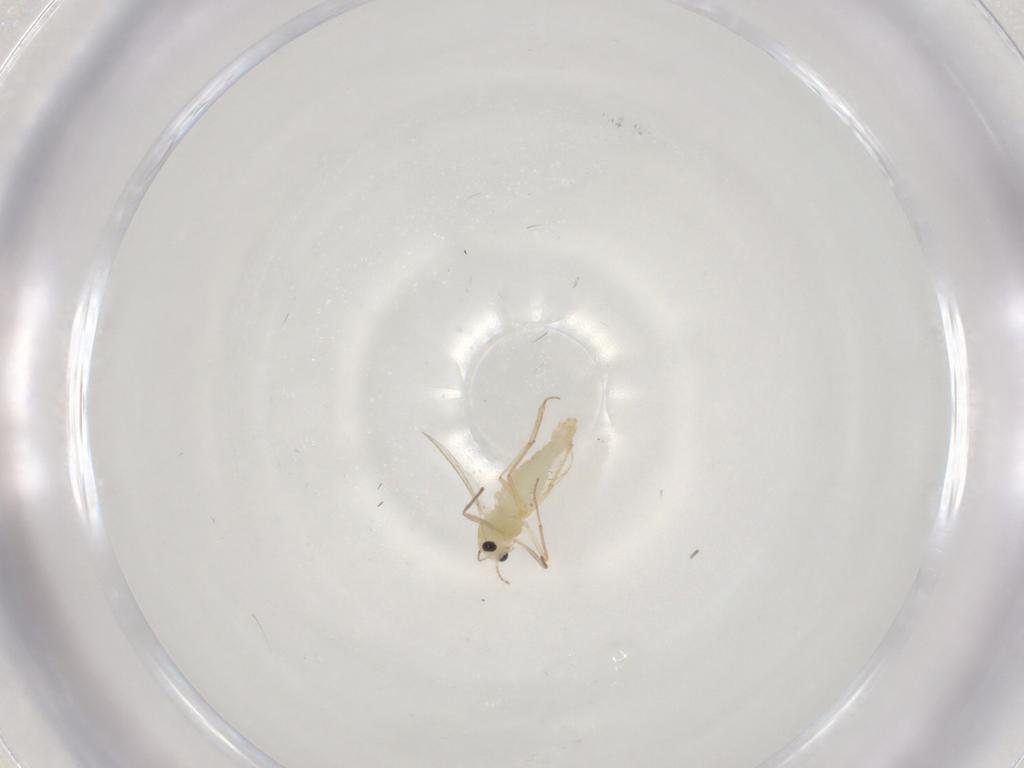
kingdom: Animalia
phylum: Arthropoda
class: Insecta
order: Diptera
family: Chironomidae
